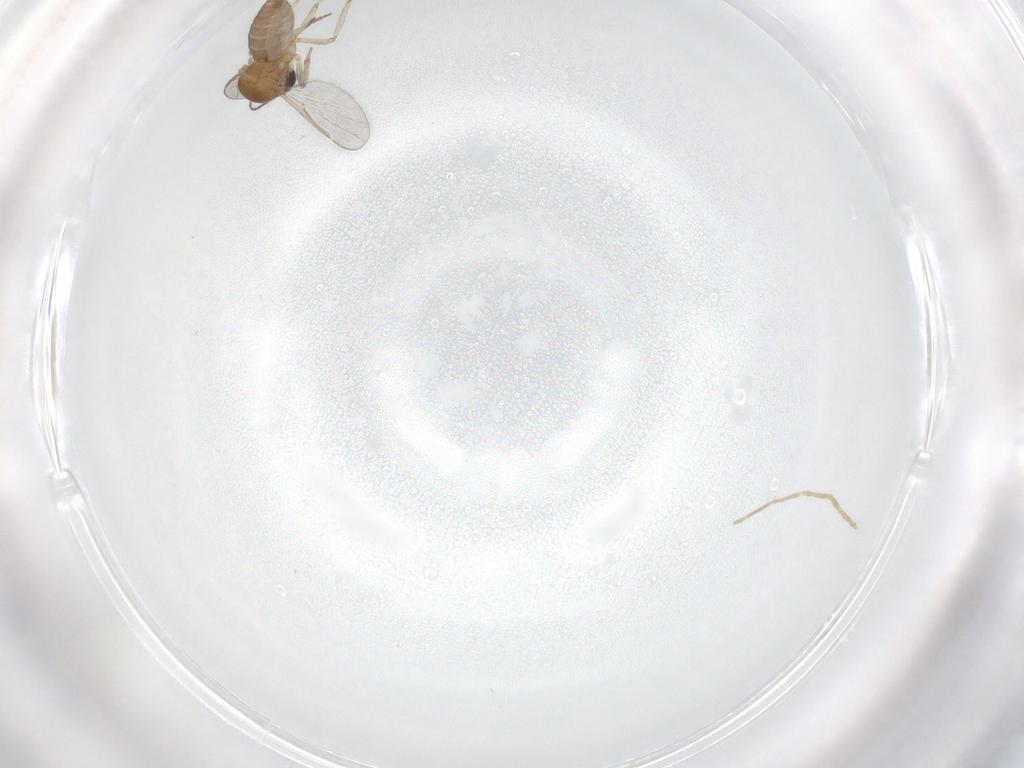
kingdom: Animalia
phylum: Arthropoda
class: Insecta
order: Diptera
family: Chironomidae
